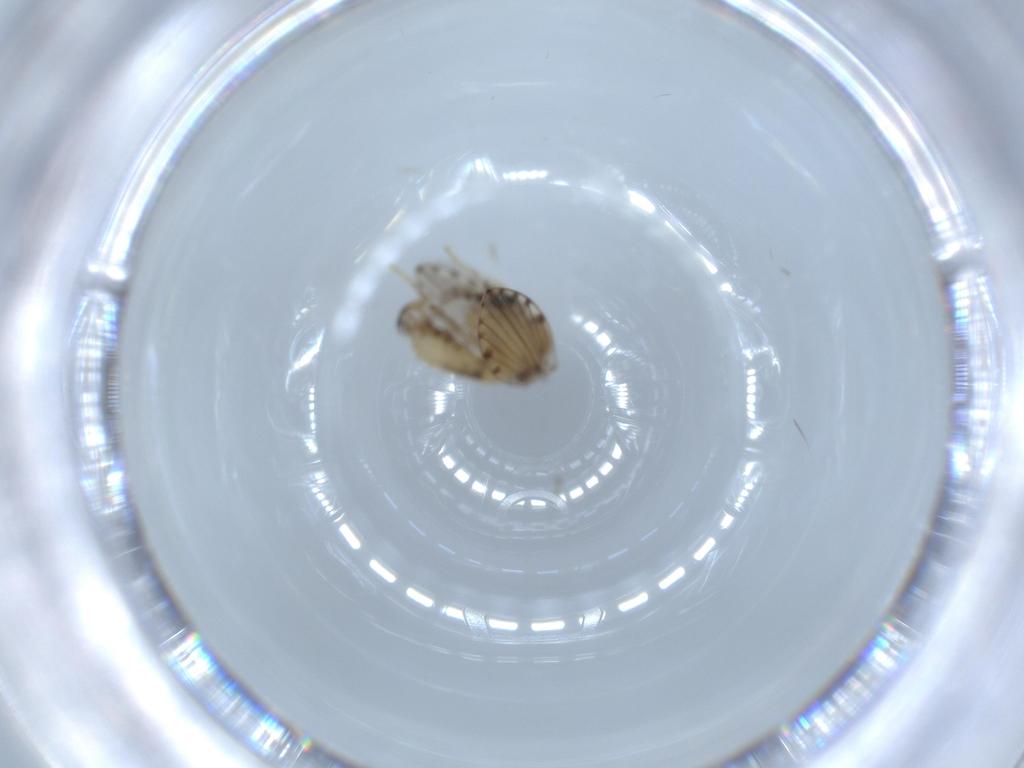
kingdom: Animalia
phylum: Arthropoda
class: Insecta
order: Diptera
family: Psychodidae
